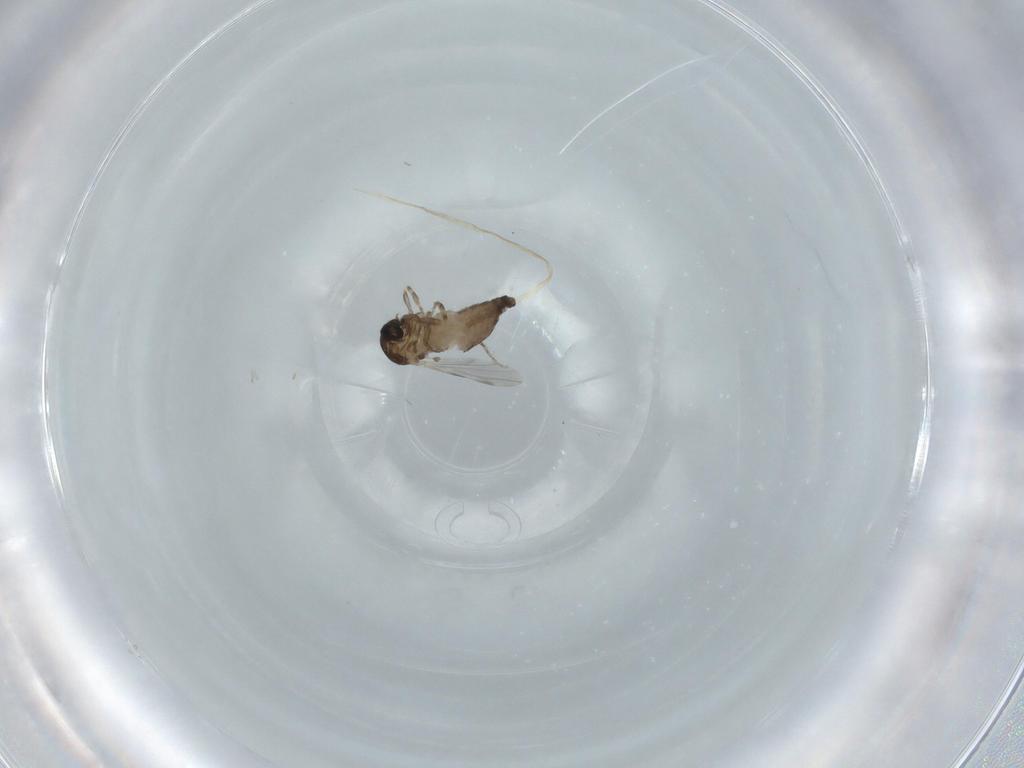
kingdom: Animalia
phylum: Arthropoda
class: Insecta
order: Diptera
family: Ceratopogonidae
